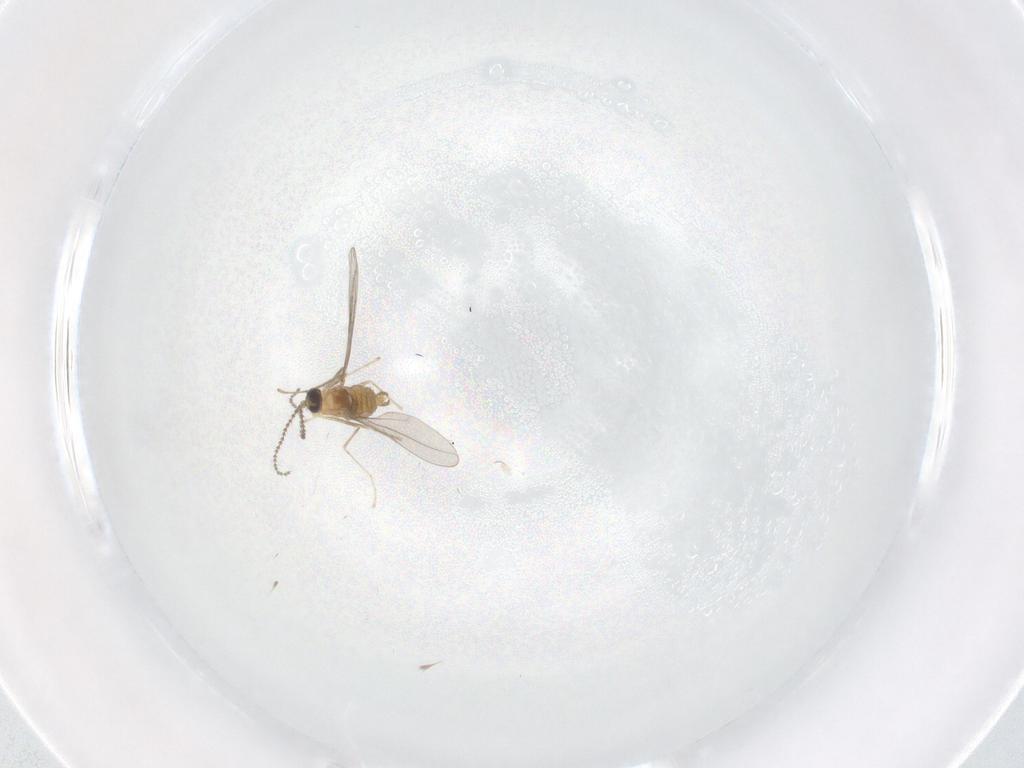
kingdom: Animalia
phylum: Arthropoda
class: Insecta
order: Diptera
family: Cecidomyiidae
